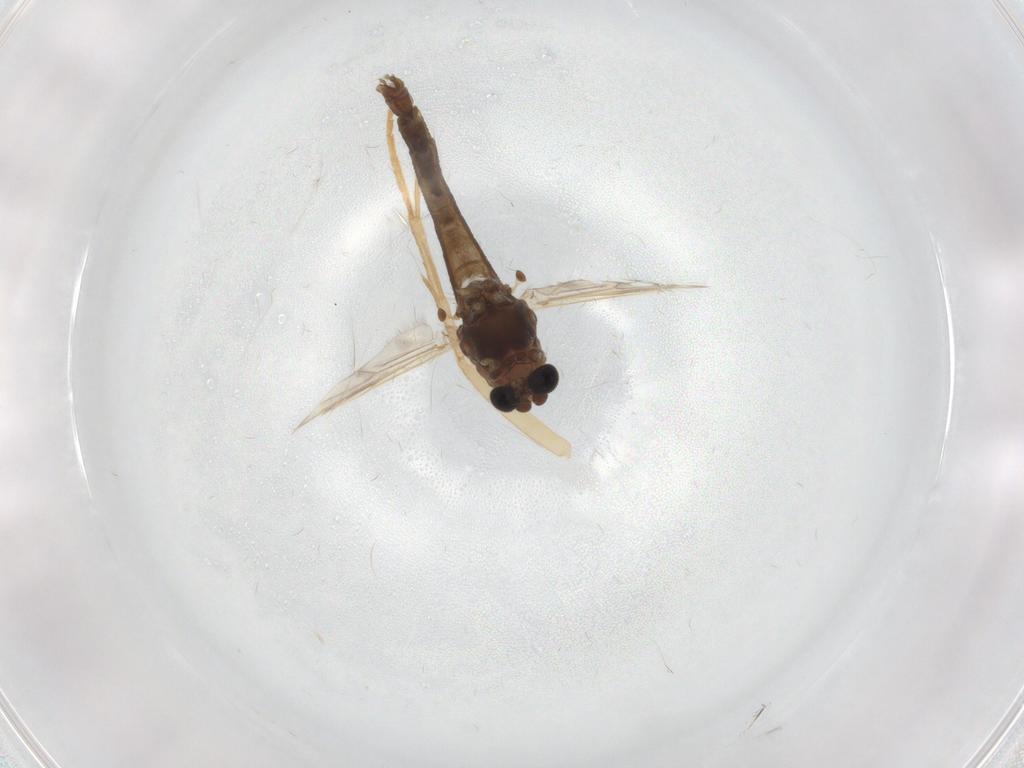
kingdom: Animalia
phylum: Arthropoda
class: Insecta
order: Diptera
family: Chironomidae
